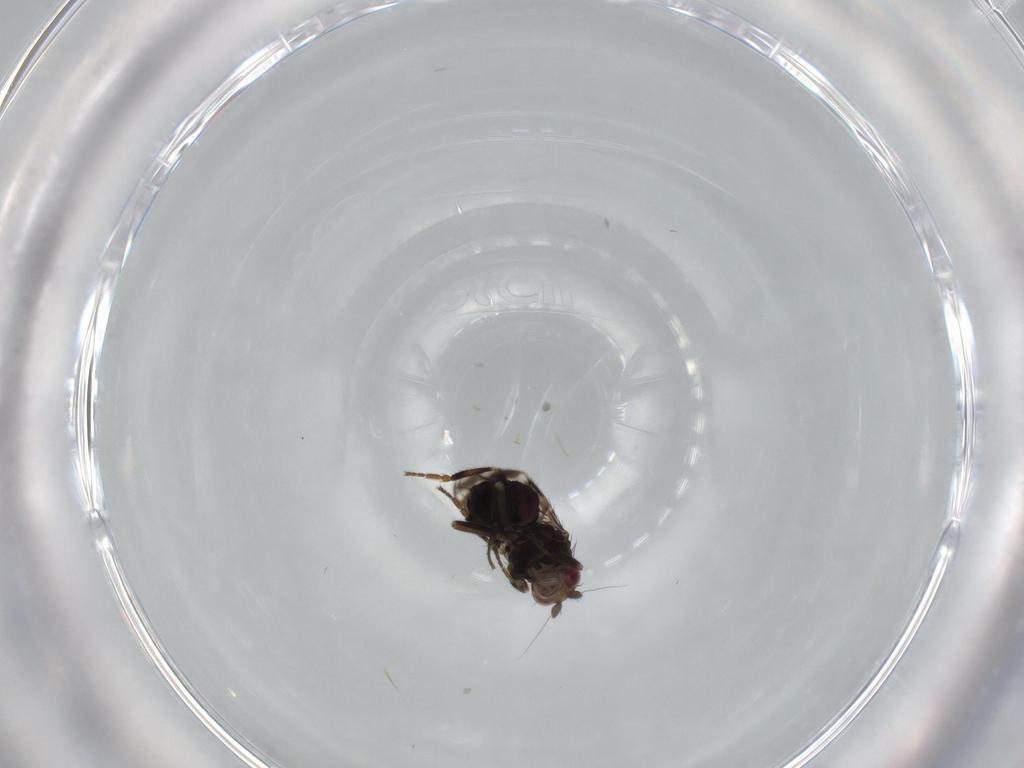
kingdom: Animalia
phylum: Arthropoda
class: Insecta
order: Diptera
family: Sphaeroceridae
